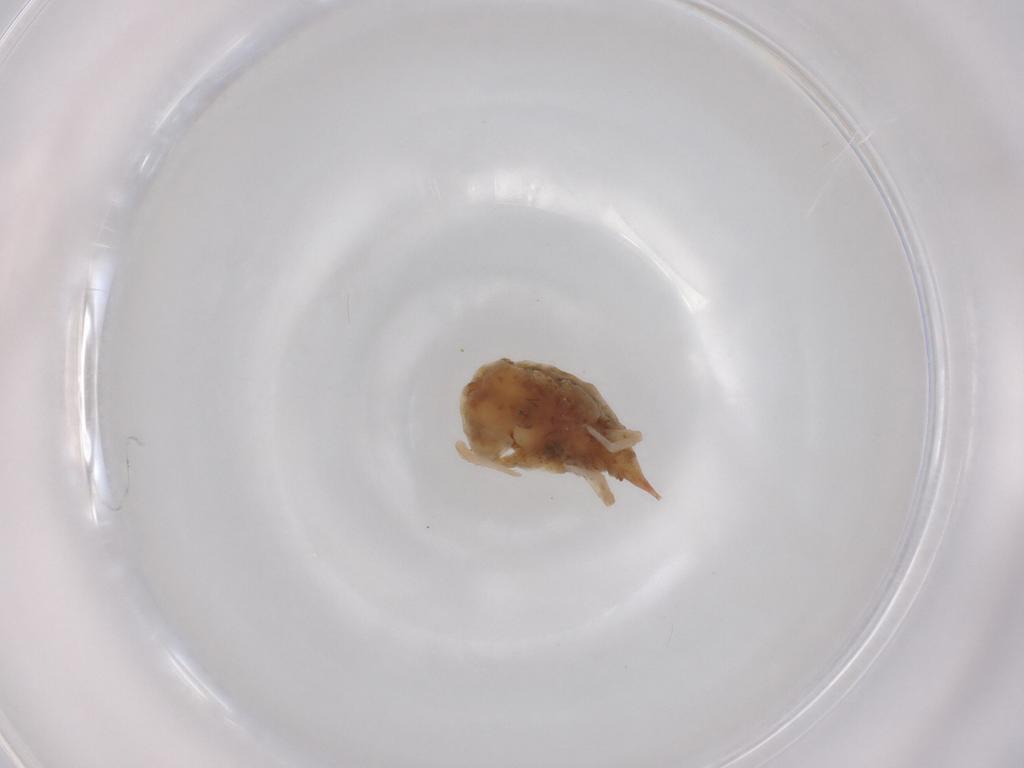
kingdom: Animalia
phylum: Arthropoda
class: Arachnida
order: Trombidiformes
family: Bdellidae
